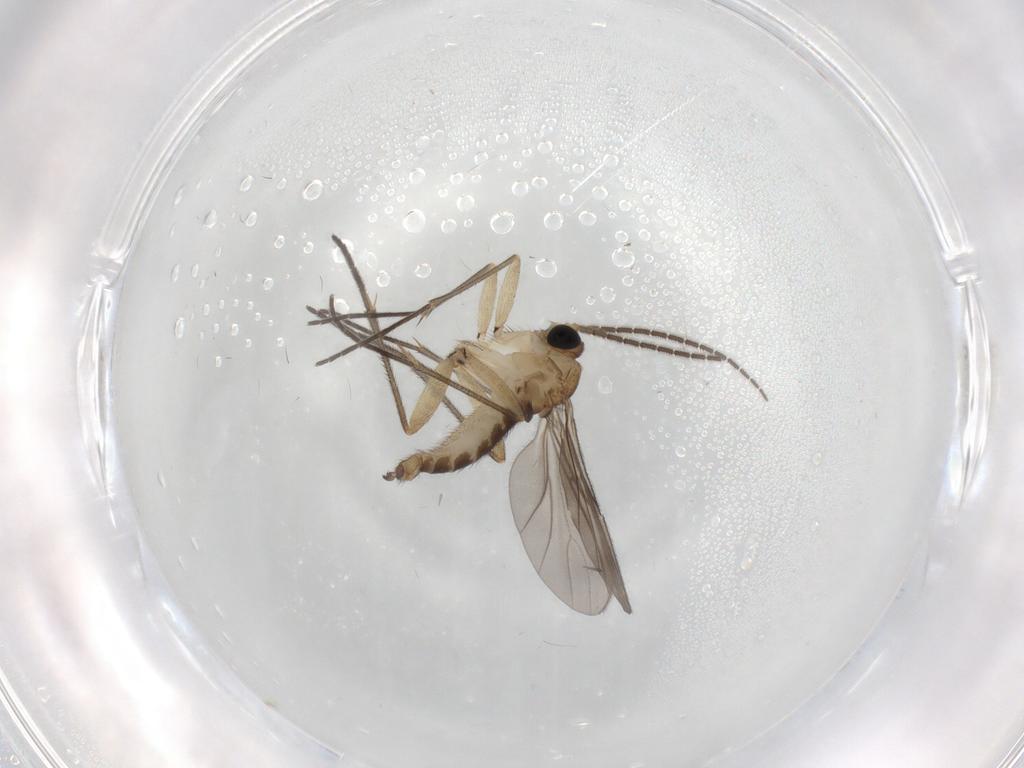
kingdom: Animalia
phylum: Arthropoda
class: Insecta
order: Diptera
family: Sciaridae
